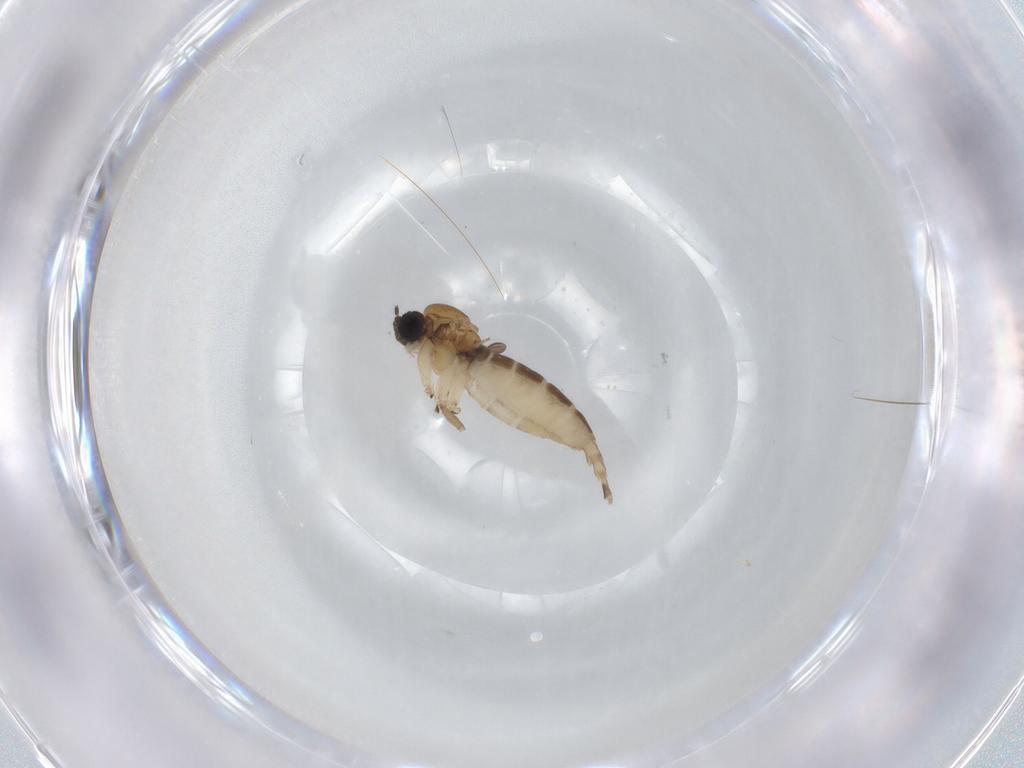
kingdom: Animalia
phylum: Arthropoda
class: Insecta
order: Diptera
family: Sciaridae
